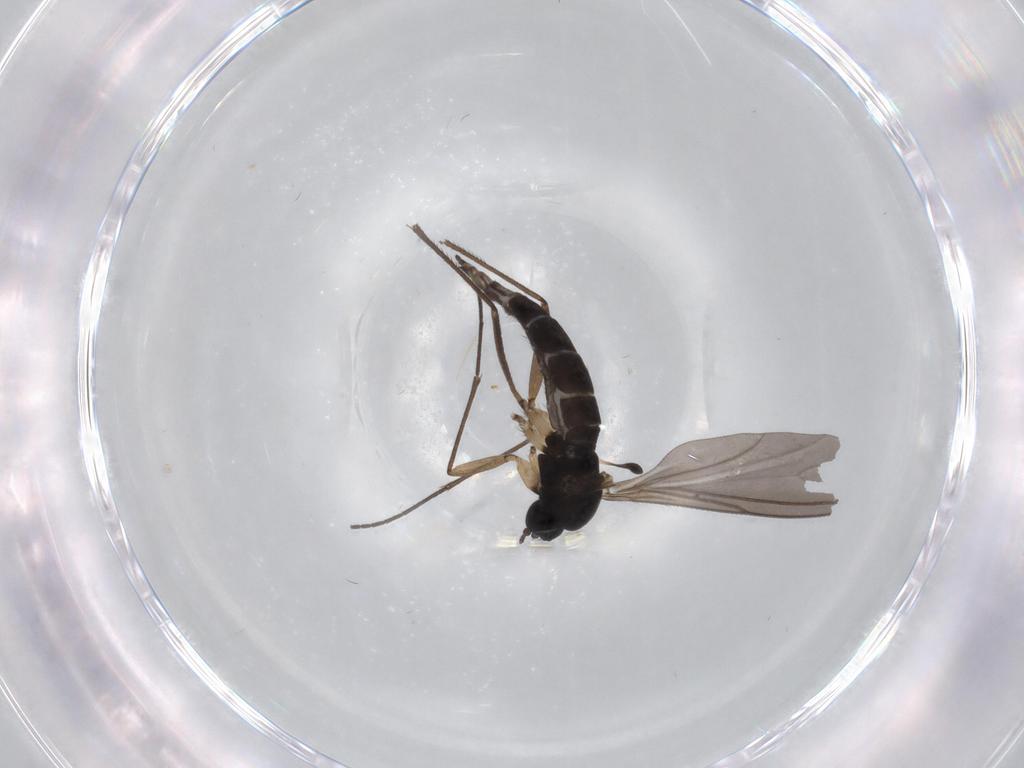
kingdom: Animalia
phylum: Arthropoda
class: Insecta
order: Diptera
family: Sciaridae
